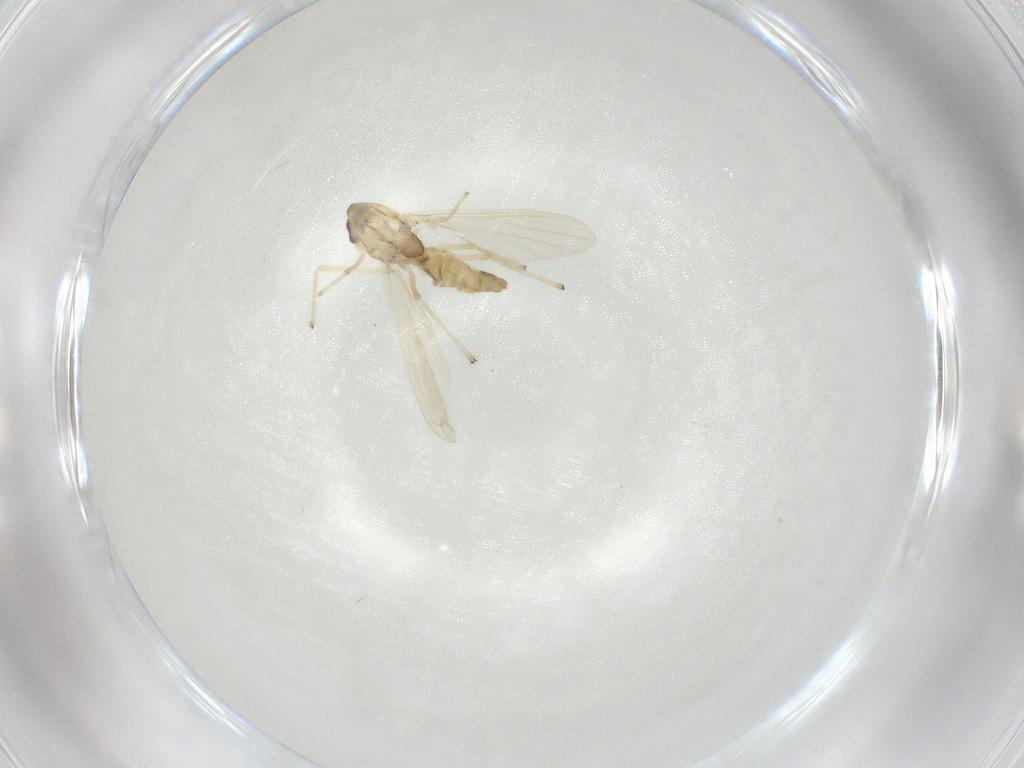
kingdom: Animalia
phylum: Arthropoda
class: Insecta
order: Diptera
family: Chironomidae
